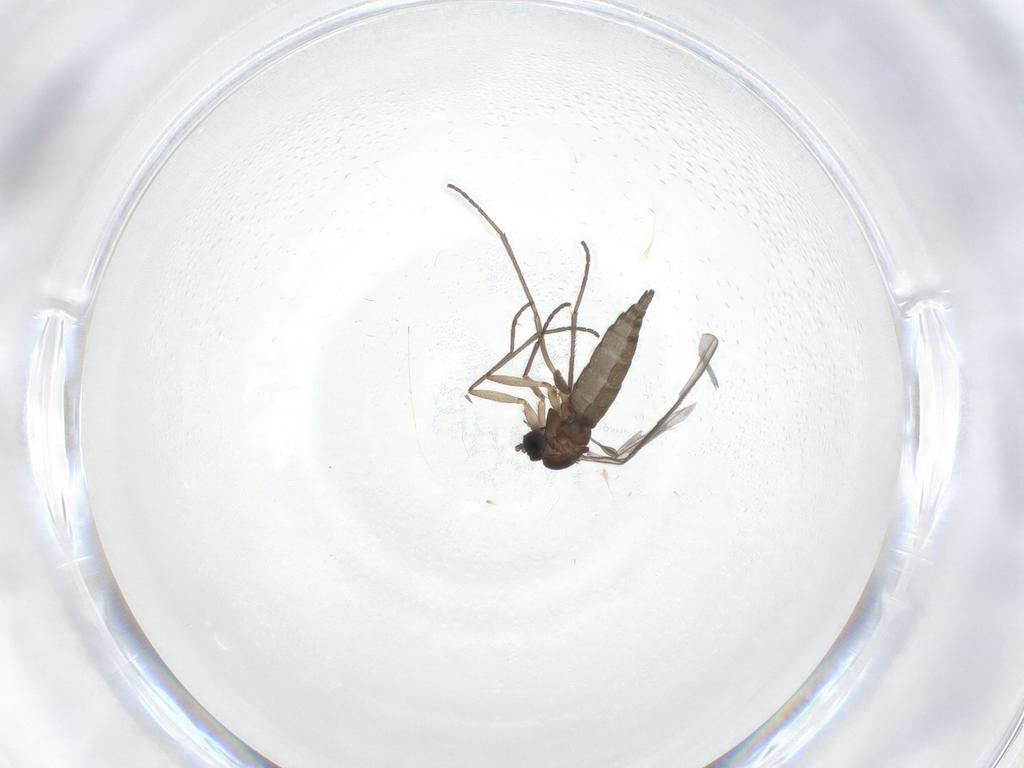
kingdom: Animalia
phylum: Arthropoda
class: Insecta
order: Diptera
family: Sciaridae
